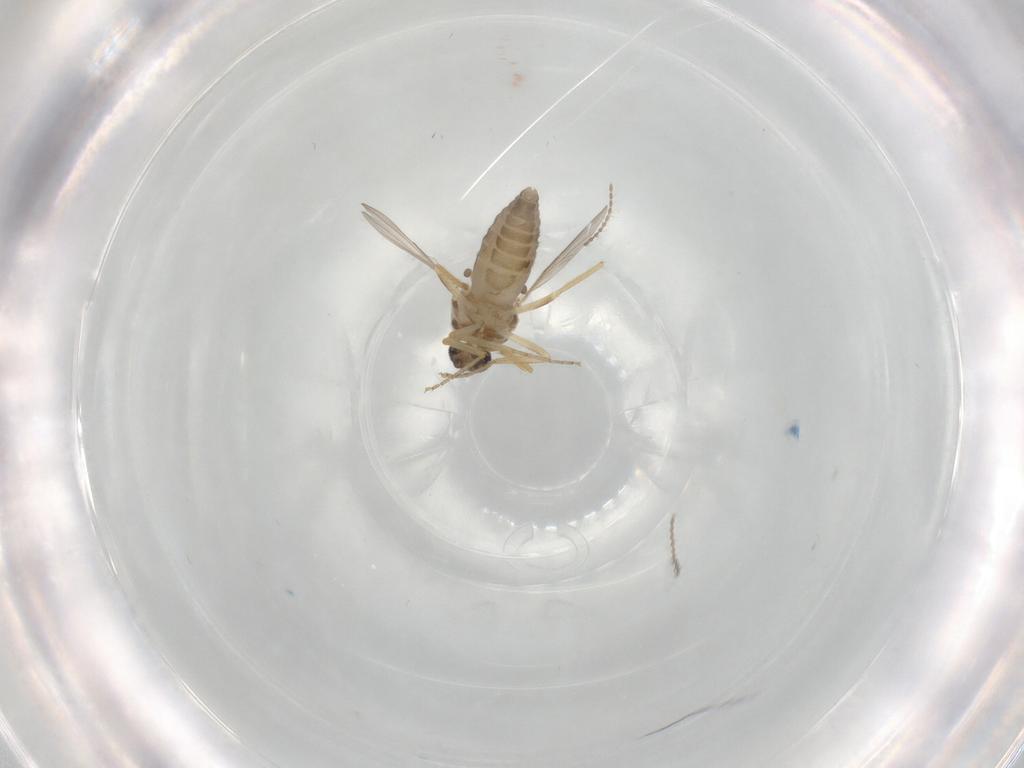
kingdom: Animalia
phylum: Arthropoda
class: Insecta
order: Diptera
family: Ceratopogonidae
